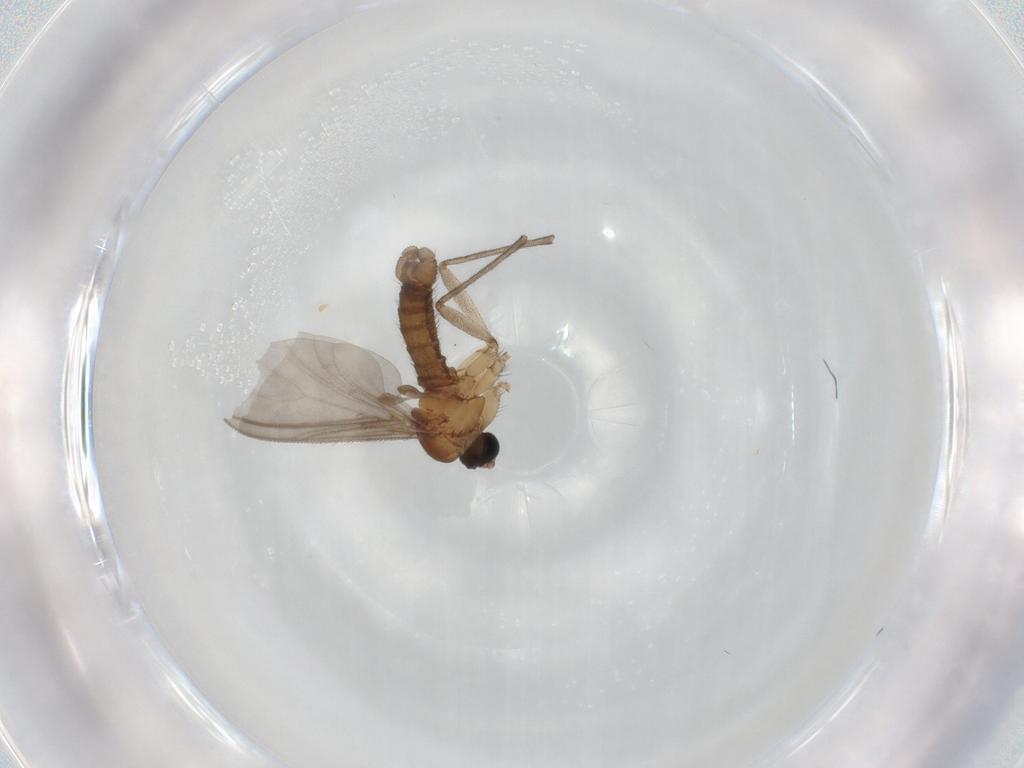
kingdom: Animalia
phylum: Arthropoda
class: Insecta
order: Diptera
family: Sciaridae
